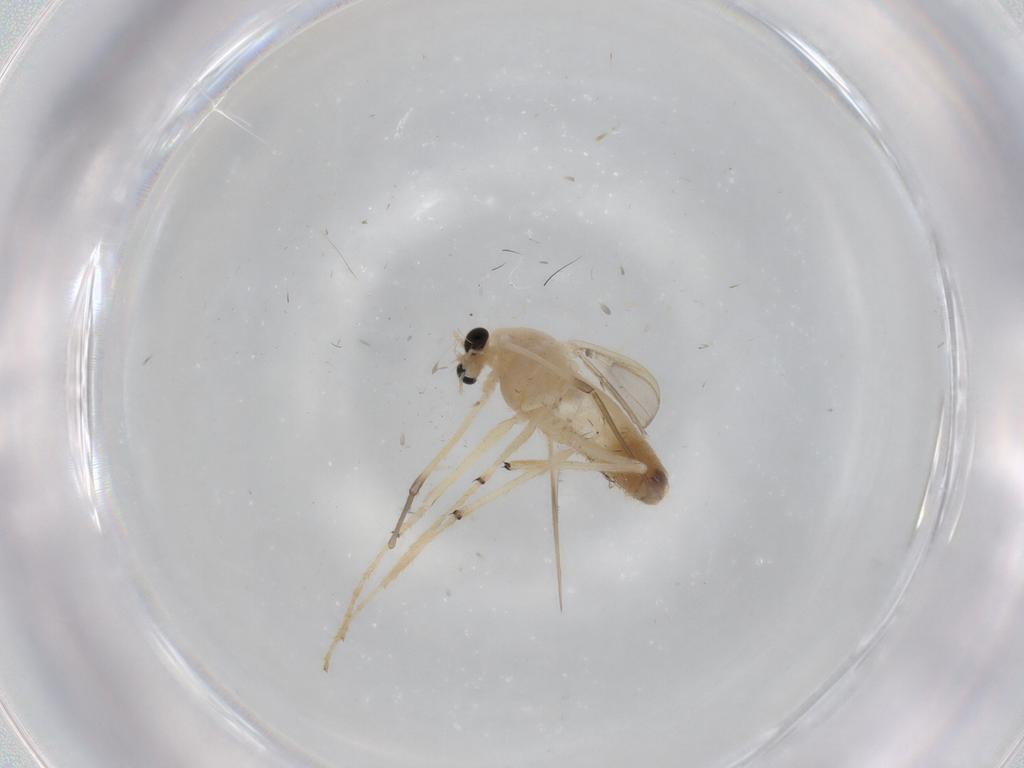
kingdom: Animalia
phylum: Arthropoda
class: Insecta
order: Diptera
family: Chironomidae
